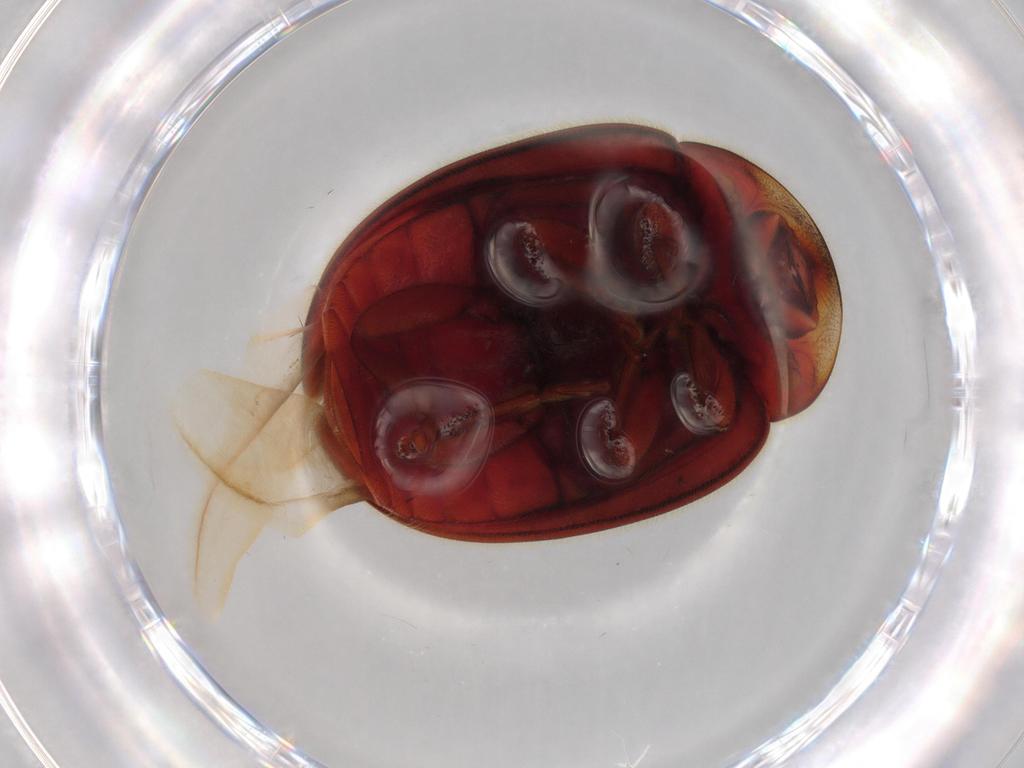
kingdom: Animalia
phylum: Arthropoda
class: Insecta
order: Coleoptera
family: Coccinellidae
